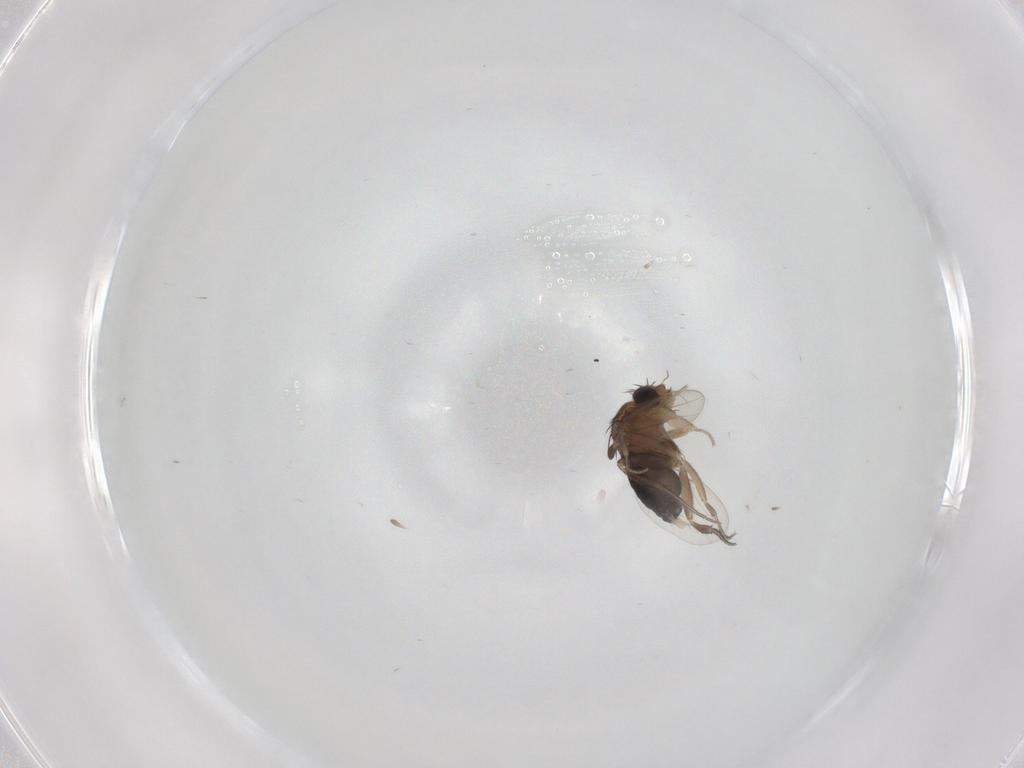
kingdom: Animalia
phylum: Arthropoda
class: Insecta
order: Diptera
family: Phoridae
